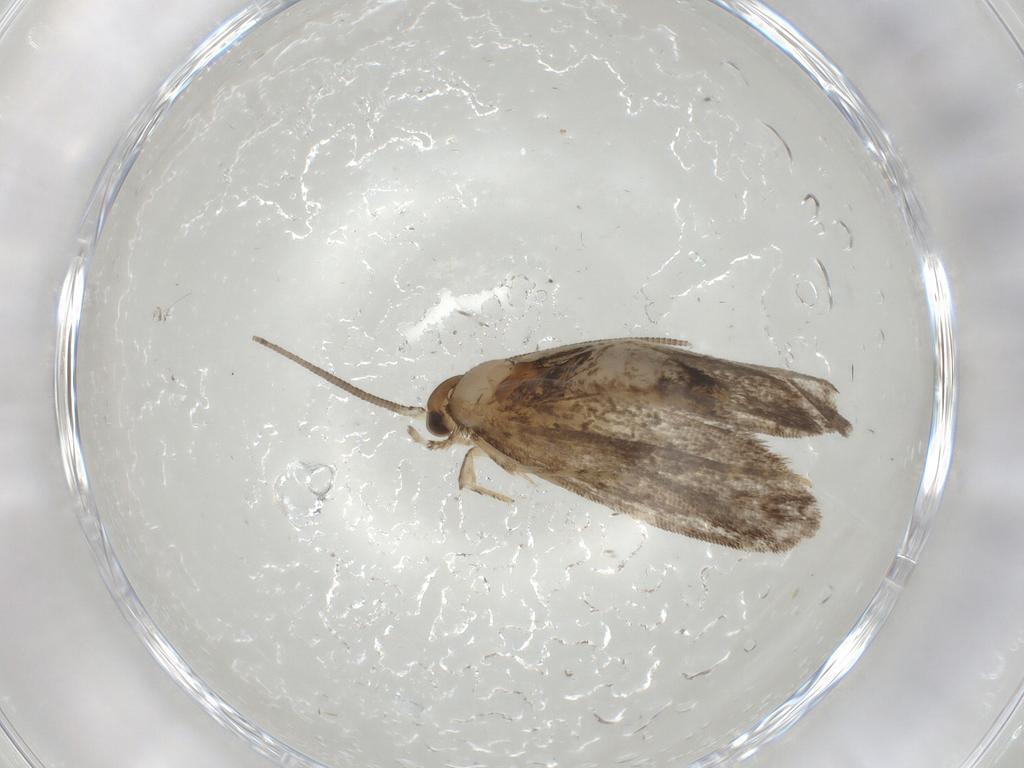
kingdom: Animalia
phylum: Arthropoda
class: Insecta
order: Lepidoptera
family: Dryadaulidae
